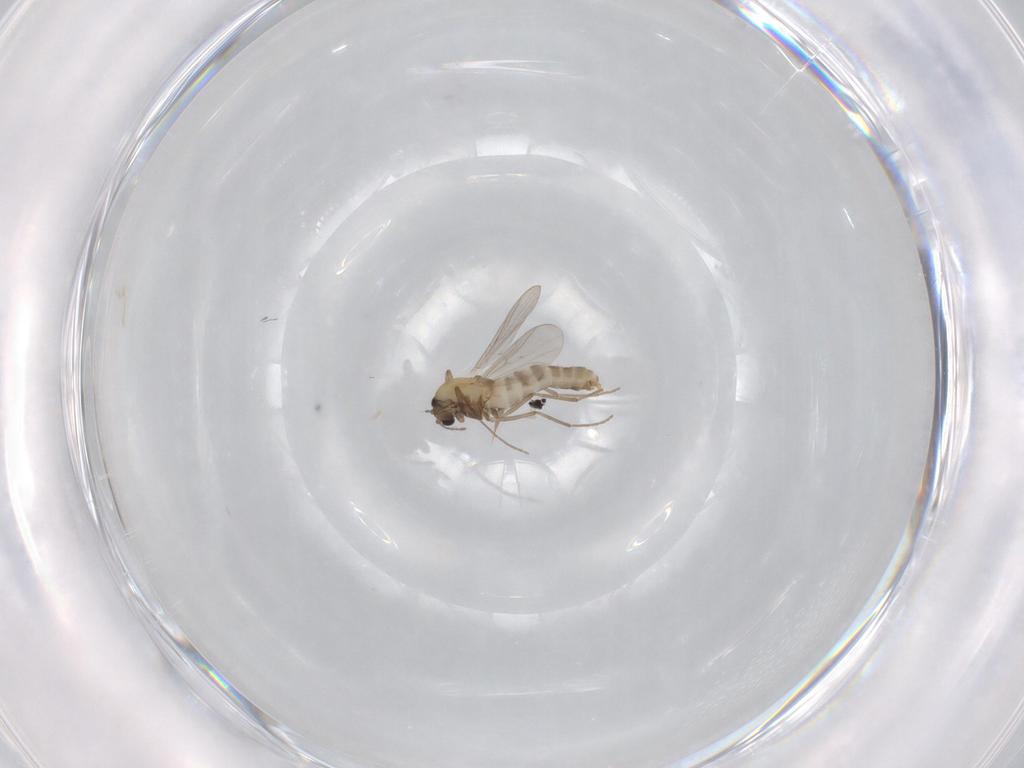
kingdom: Animalia
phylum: Arthropoda
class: Insecta
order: Diptera
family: Chironomidae
